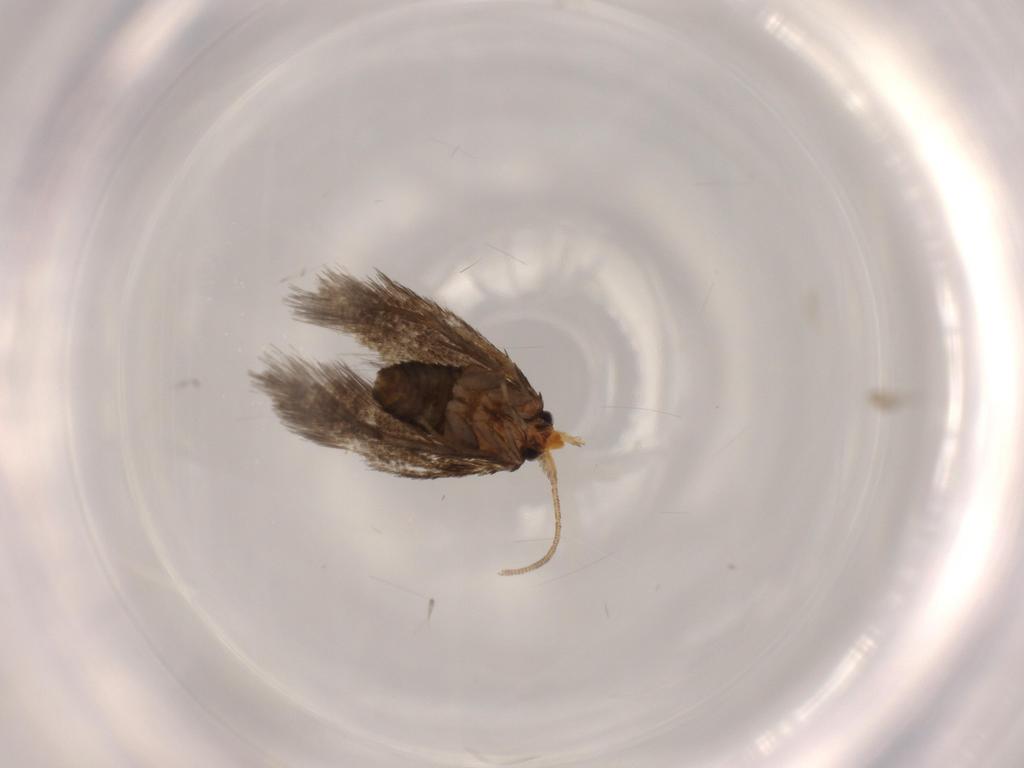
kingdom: Animalia
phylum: Arthropoda
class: Insecta
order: Lepidoptera
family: Nepticulidae
